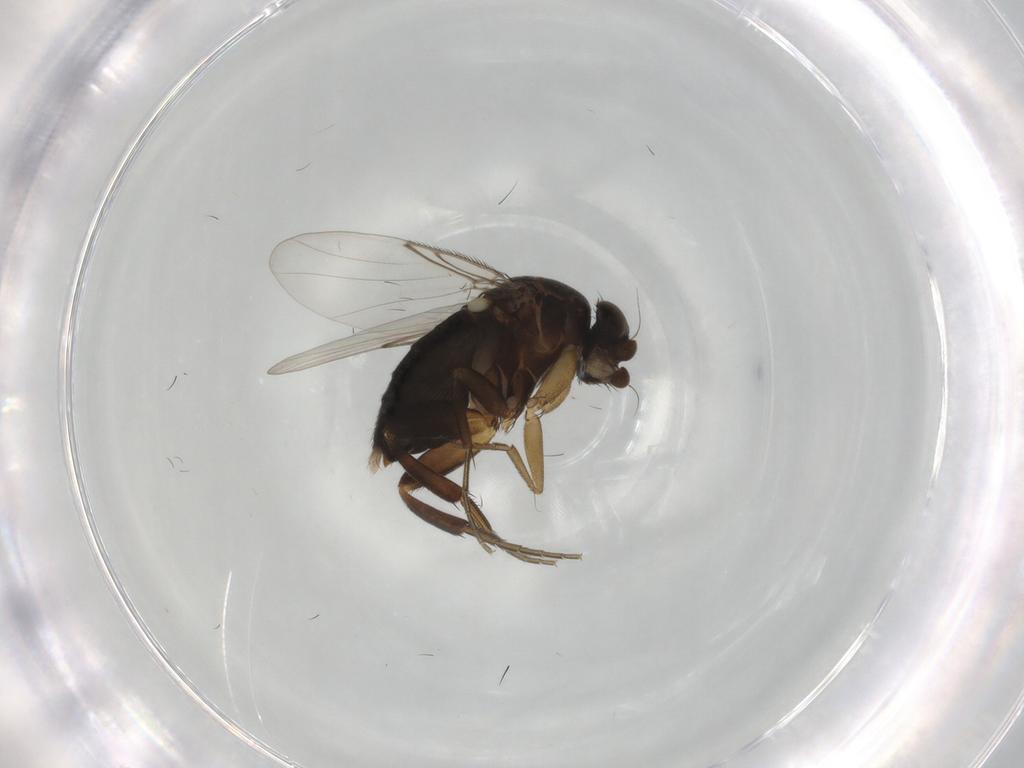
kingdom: Animalia
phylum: Arthropoda
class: Insecta
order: Diptera
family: Phoridae
